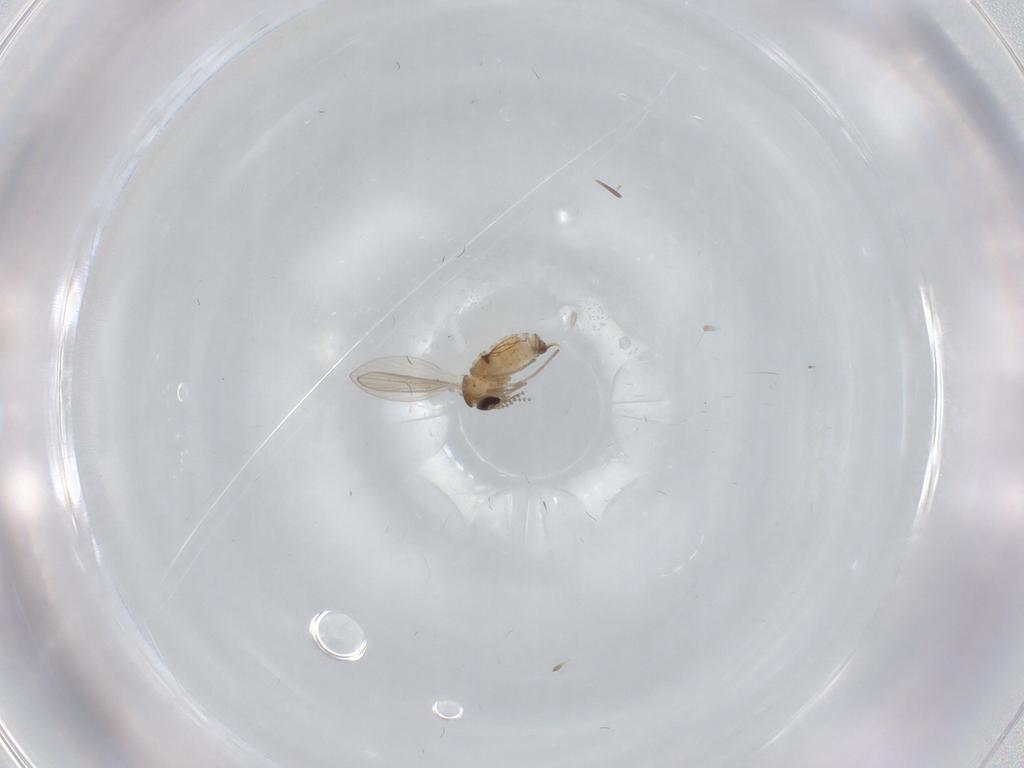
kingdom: Animalia
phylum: Arthropoda
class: Insecta
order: Diptera
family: Psychodidae
